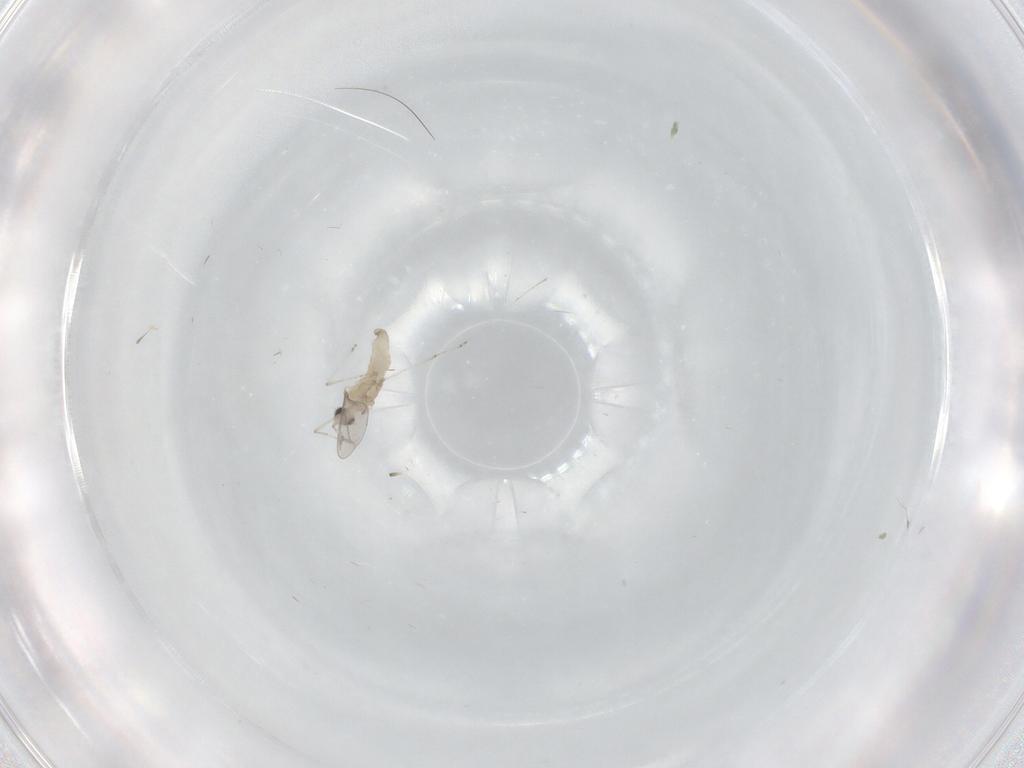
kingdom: Animalia
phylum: Arthropoda
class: Insecta
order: Diptera
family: Cecidomyiidae
